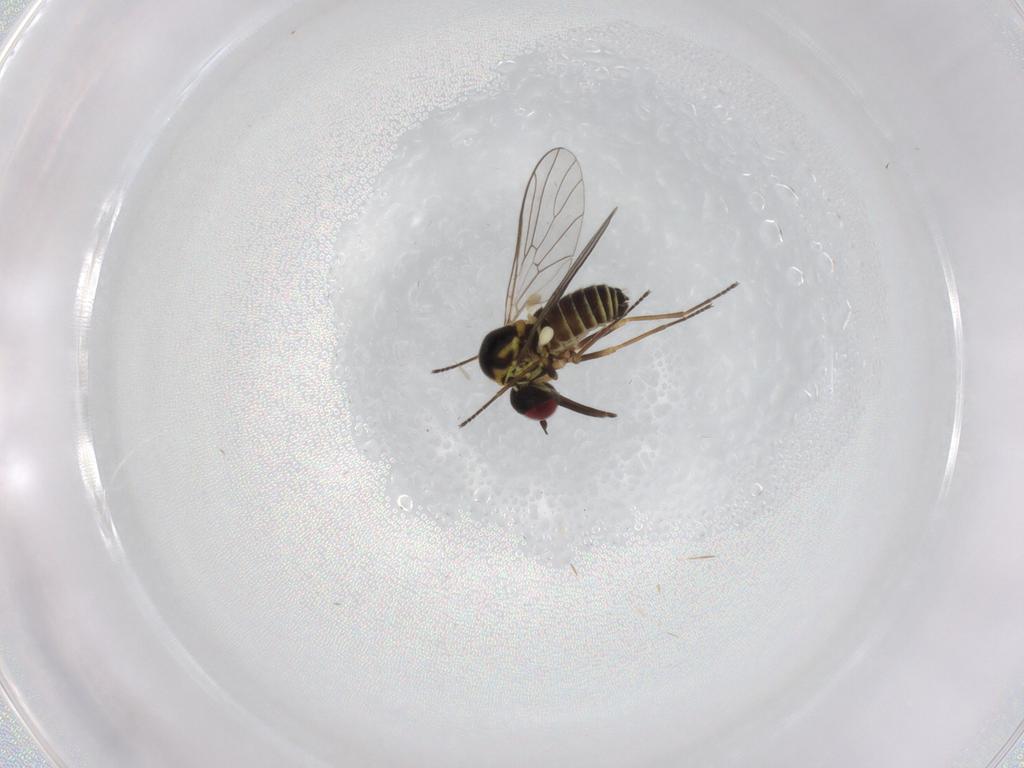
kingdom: Animalia
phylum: Arthropoda
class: Insecta
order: Diptera
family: Bombyliidae
